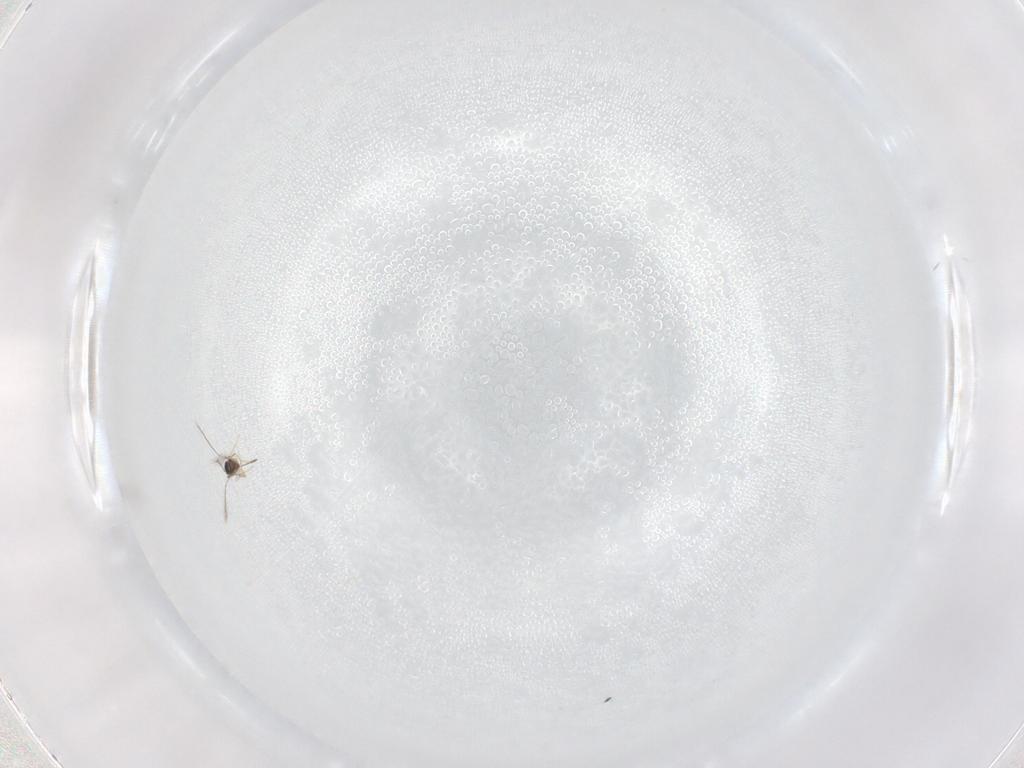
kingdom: Animalia
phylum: Arthropoda
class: Insecta
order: Hymenoptera
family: Scelionidae
